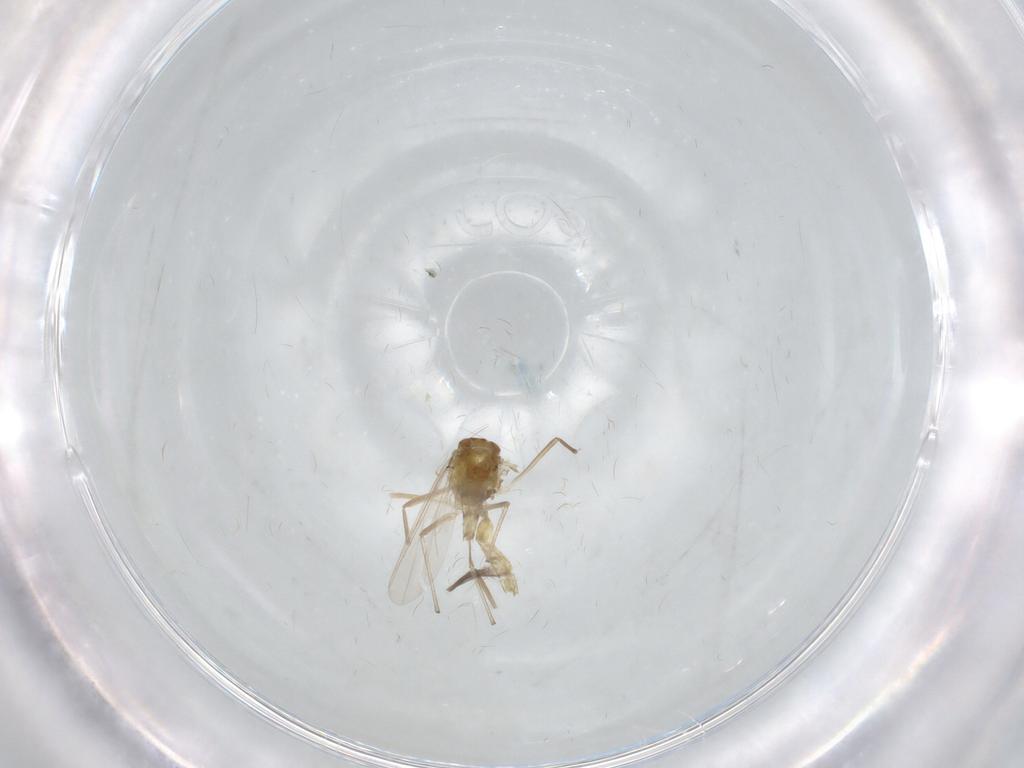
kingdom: Animalia
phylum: Arthropoda
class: Insecta
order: Diptera
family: Chironomidae
